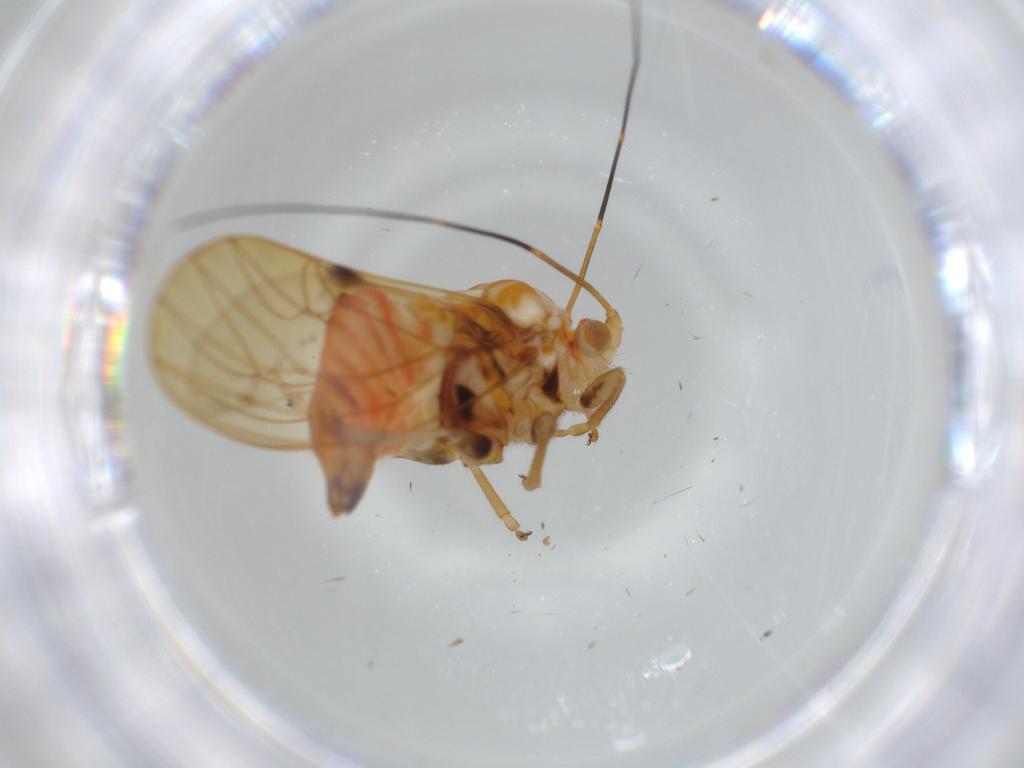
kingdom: Animalia
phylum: Arthropoda
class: Insecta
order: Hemiptera
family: Psyllidae
